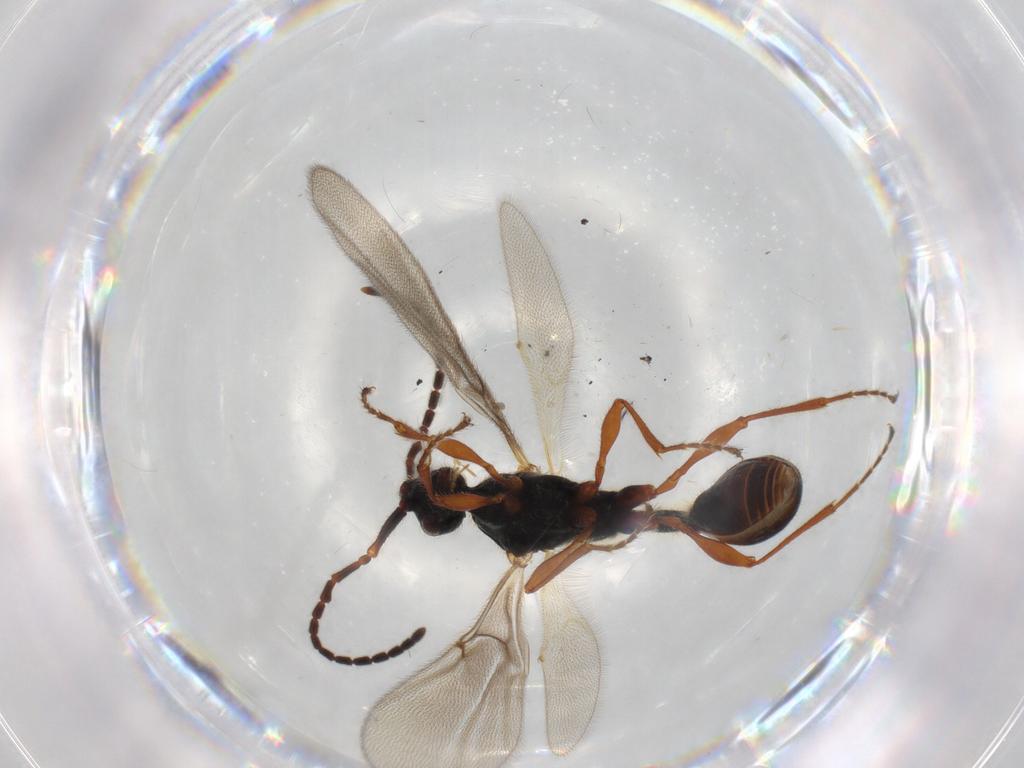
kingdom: Animalia
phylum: Arthropoda
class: Insecta
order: Hymenoptera
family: Diapriidae
